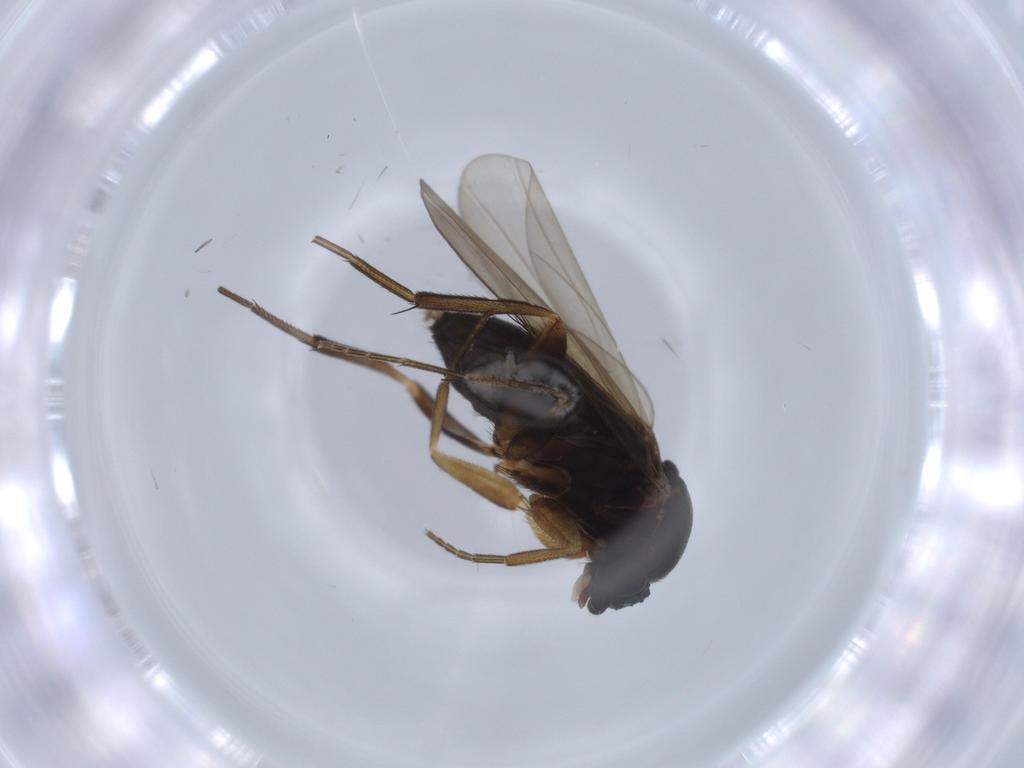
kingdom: Animalia
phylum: Arthropoda
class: Insecta
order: Diptera
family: Phoridae
